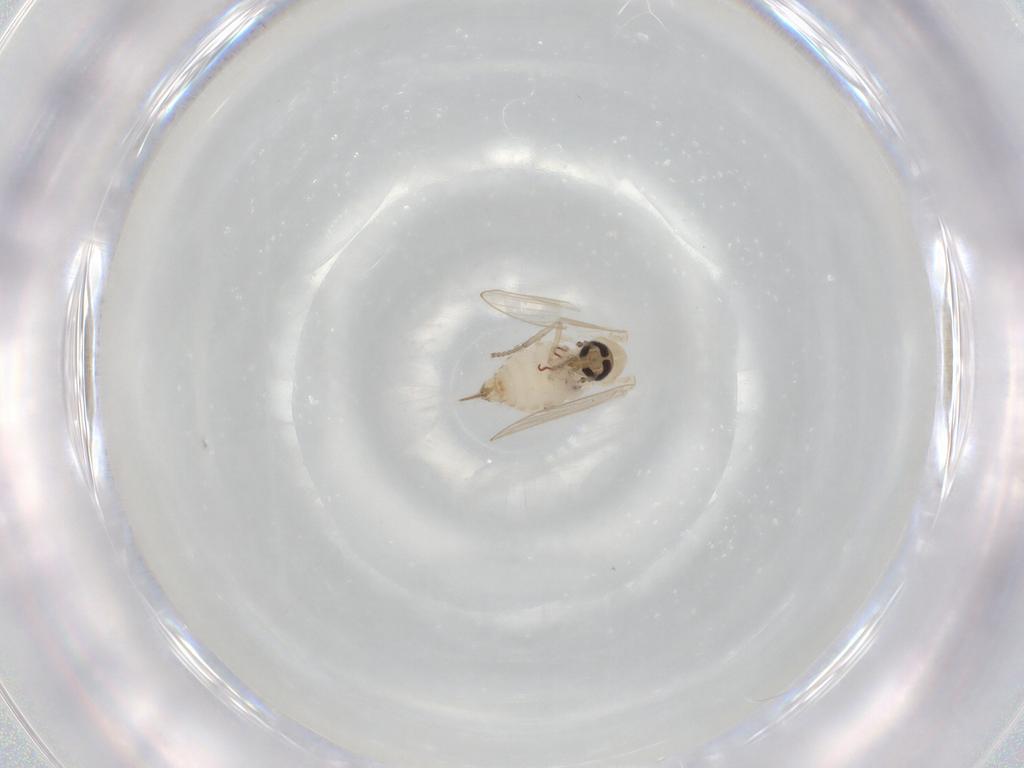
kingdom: Animalia
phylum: Arthropoda
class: Insecta
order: Diptera
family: Psychodidae
